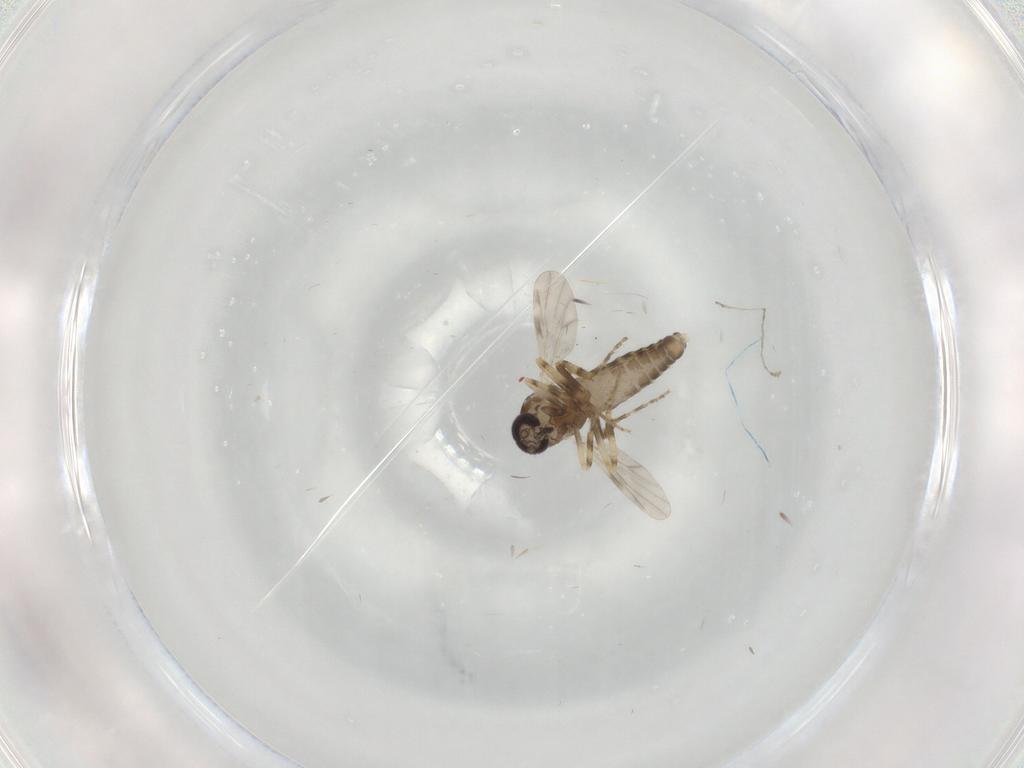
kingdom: Animalia
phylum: Arthropoda
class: Insecta
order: Diptera
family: Ceratopogonidae
